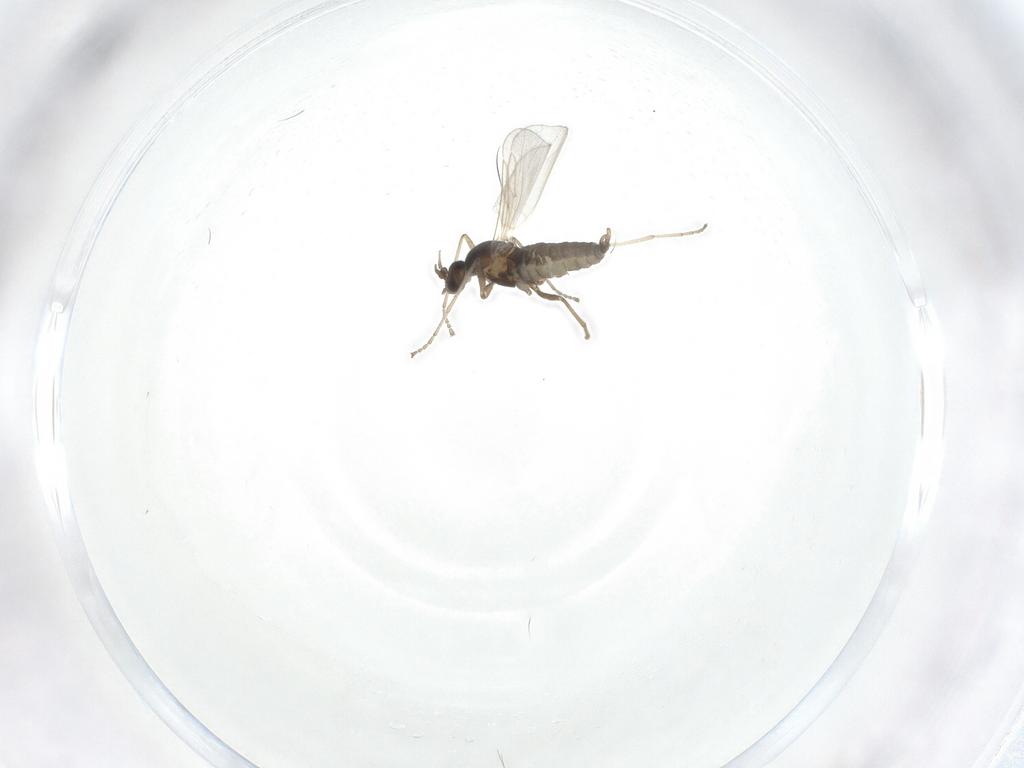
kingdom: Animalia
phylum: Arthropoda
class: Insecta
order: Diptera
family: Cecidomyiidae
